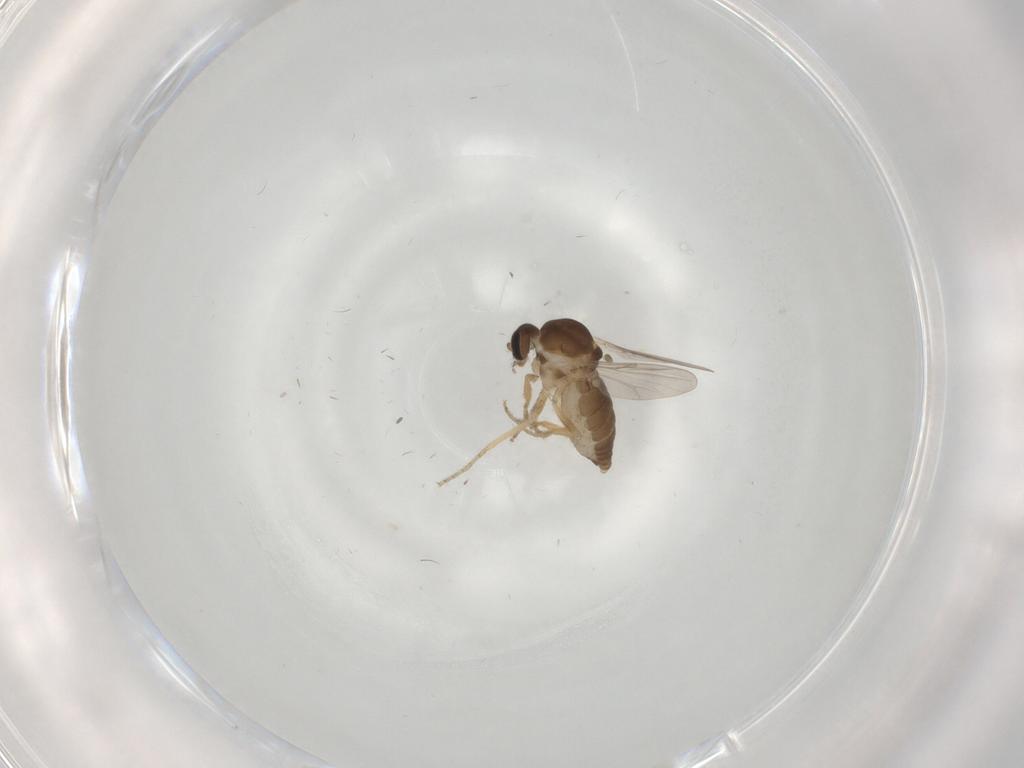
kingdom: Animalia
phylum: Arthropoda
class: Insecta
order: Diptera
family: Ceratopogonidae
